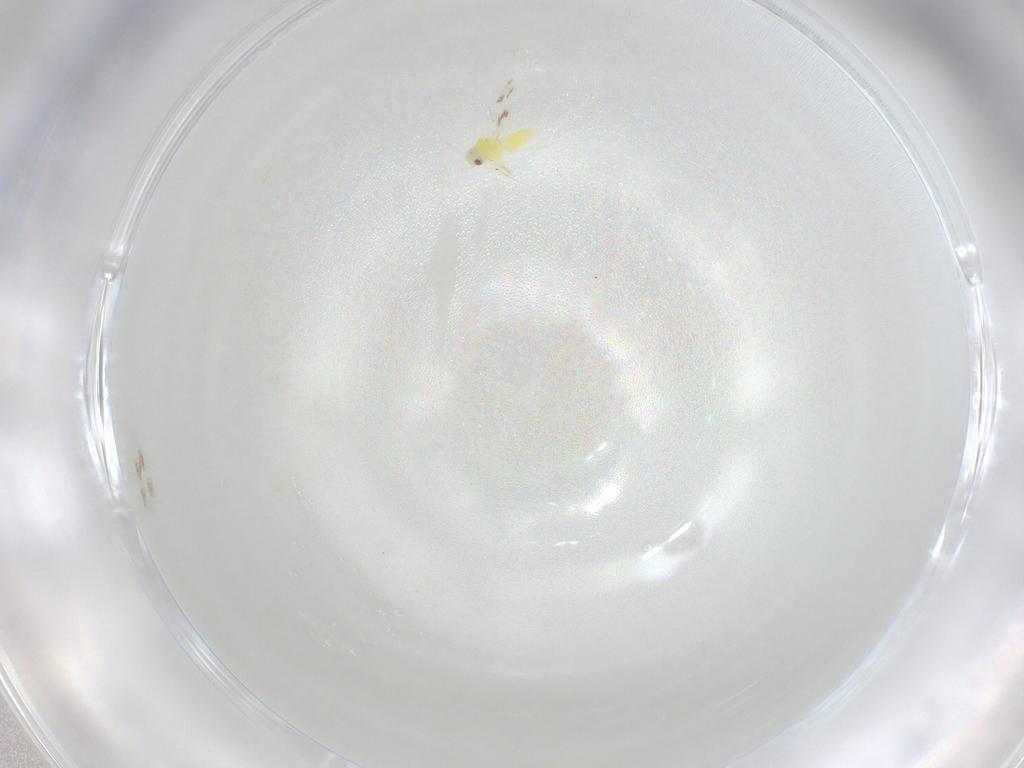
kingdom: Animalia
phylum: Arthropoda
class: Insecta
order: Hemiptera
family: Aleyrodidae
